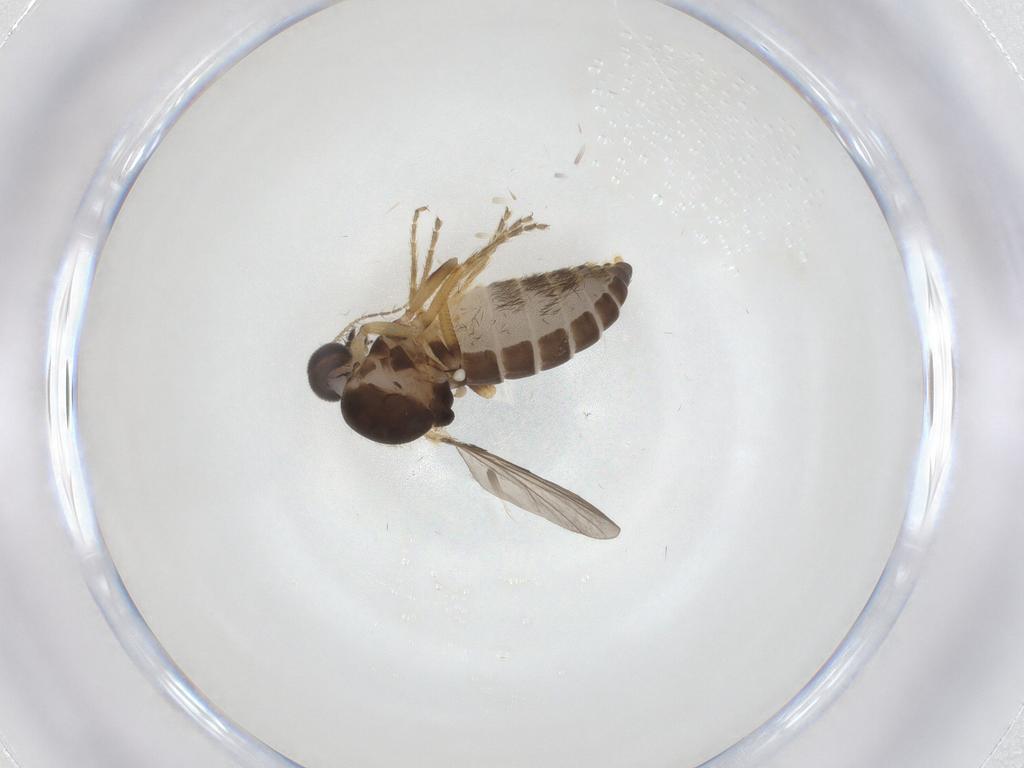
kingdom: Animalia
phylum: Arthropoda
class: Insecta
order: Diptera
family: Ceratopogonidae
